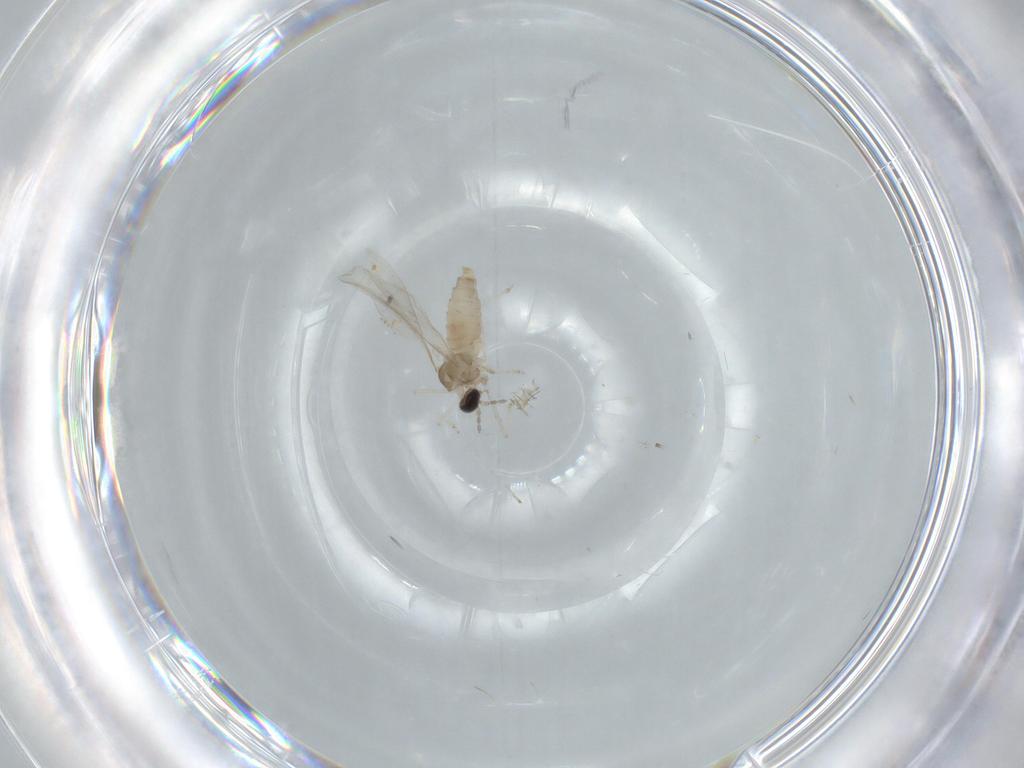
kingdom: Animalia
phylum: Arthropoda
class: Insecta
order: Diptera
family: Cecidomyiidae
